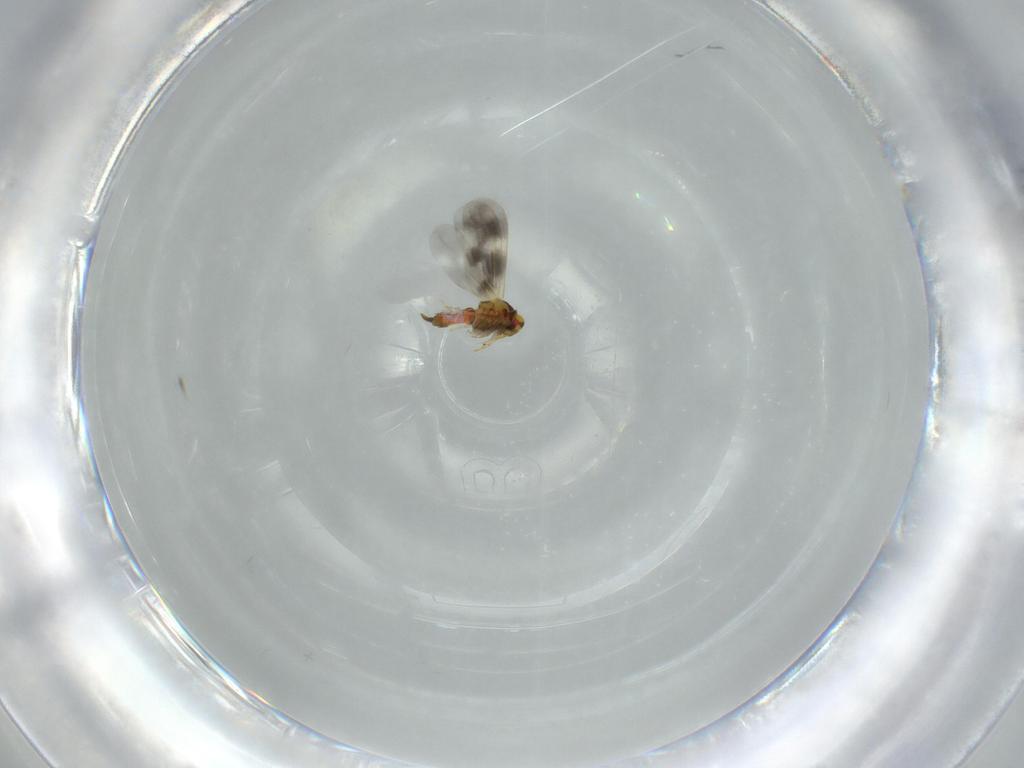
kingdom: Animalia
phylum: Arthropoda
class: Insecta
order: Hemiptera
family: Aleyrodidae
